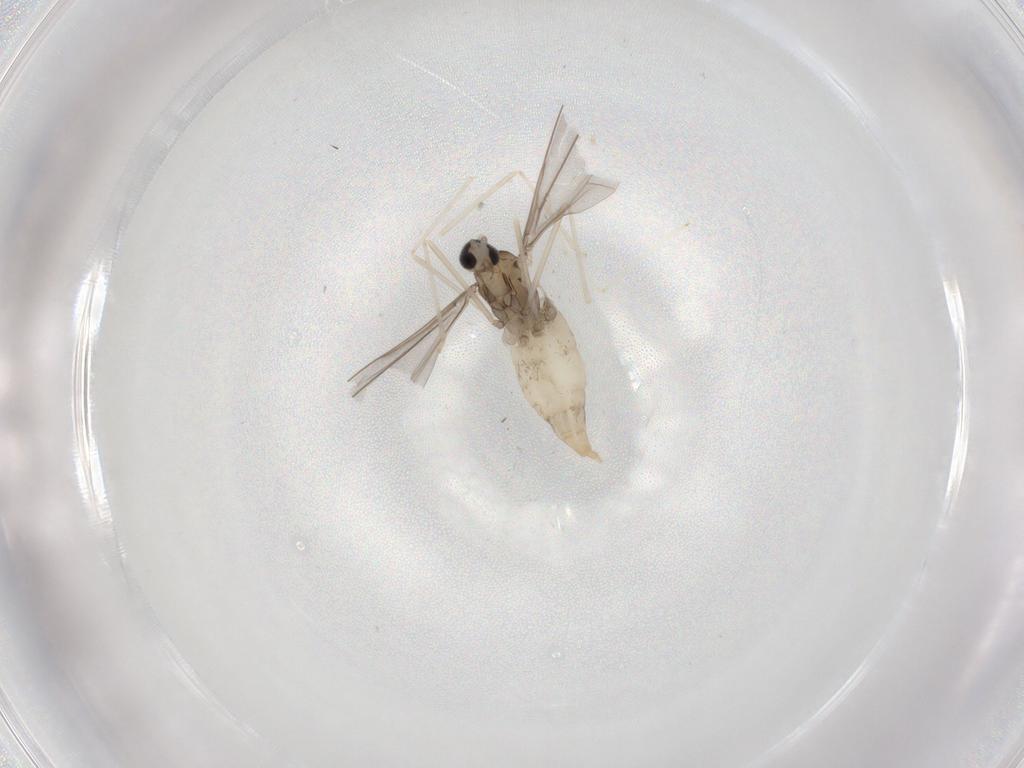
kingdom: Animalia
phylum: Arthropoda
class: Insecta
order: Diptera
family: Cecidomyiidae
